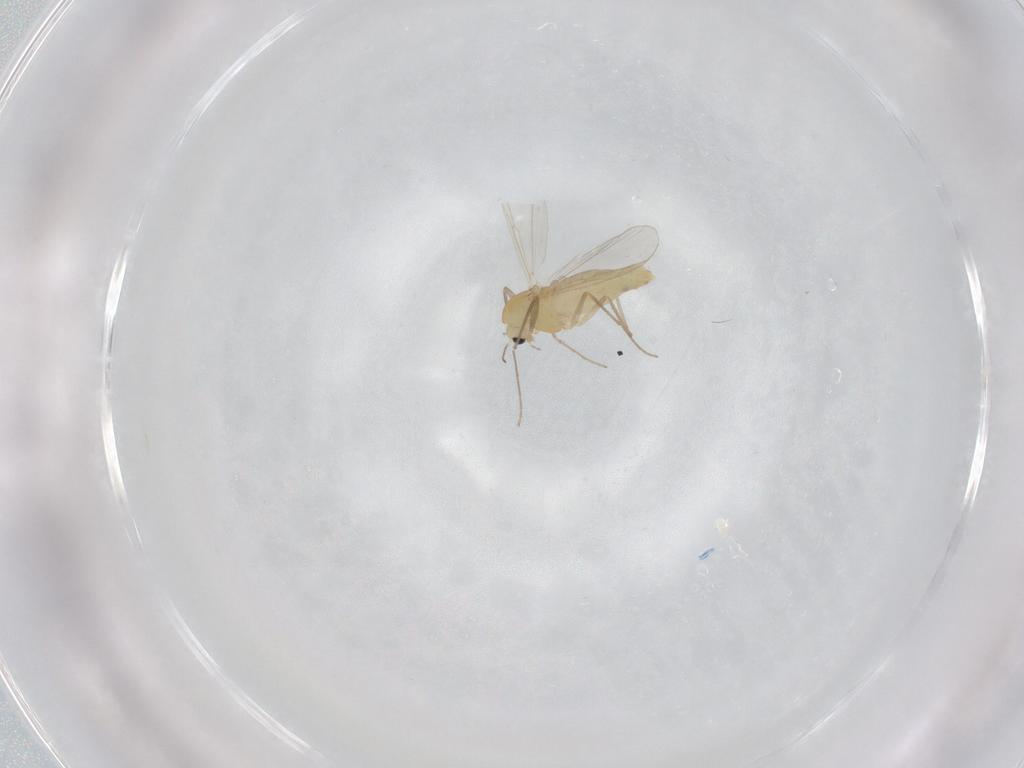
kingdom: Animalia
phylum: Arthropoda
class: Insecta
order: Diptera
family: Chironomidae
